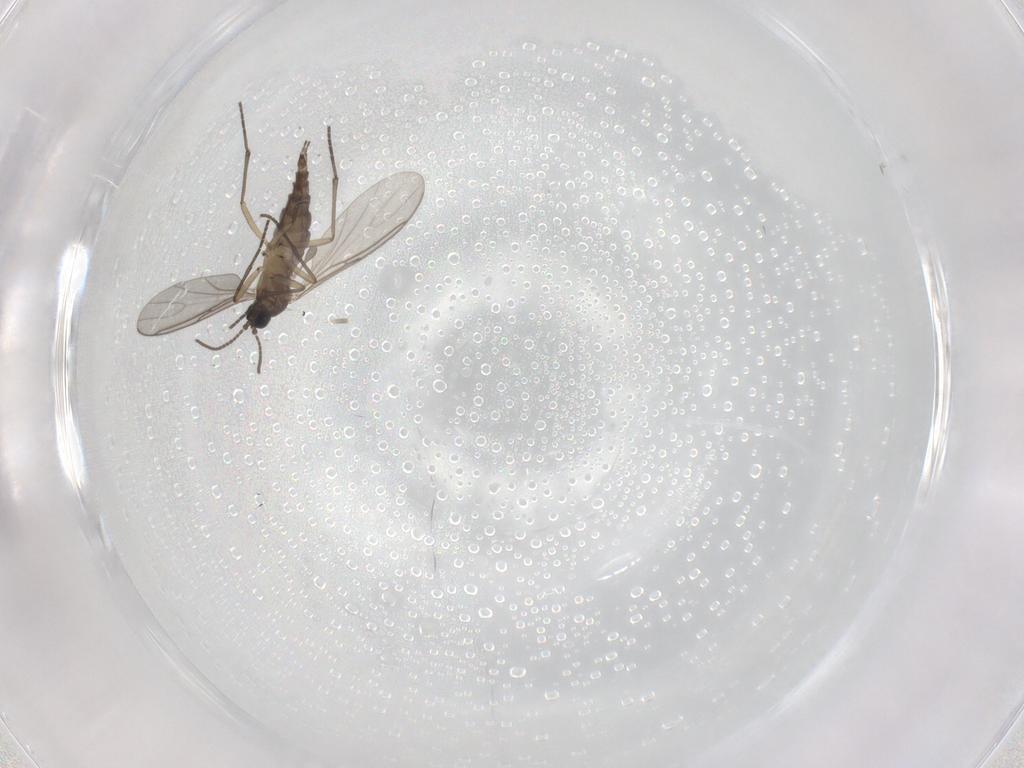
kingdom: Animalia
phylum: Arthropoda
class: Insecta
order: Diptera
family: Sciaridae
